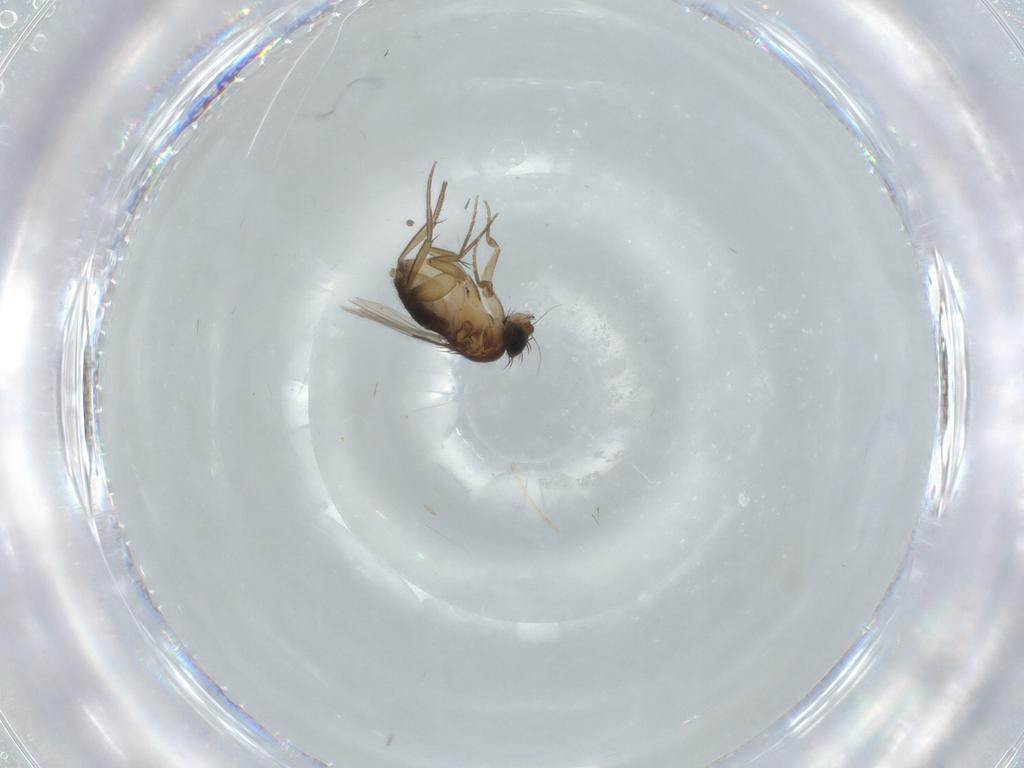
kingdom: Animalia
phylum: Arthropoda
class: Insecta
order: Diptera
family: Phoridae
